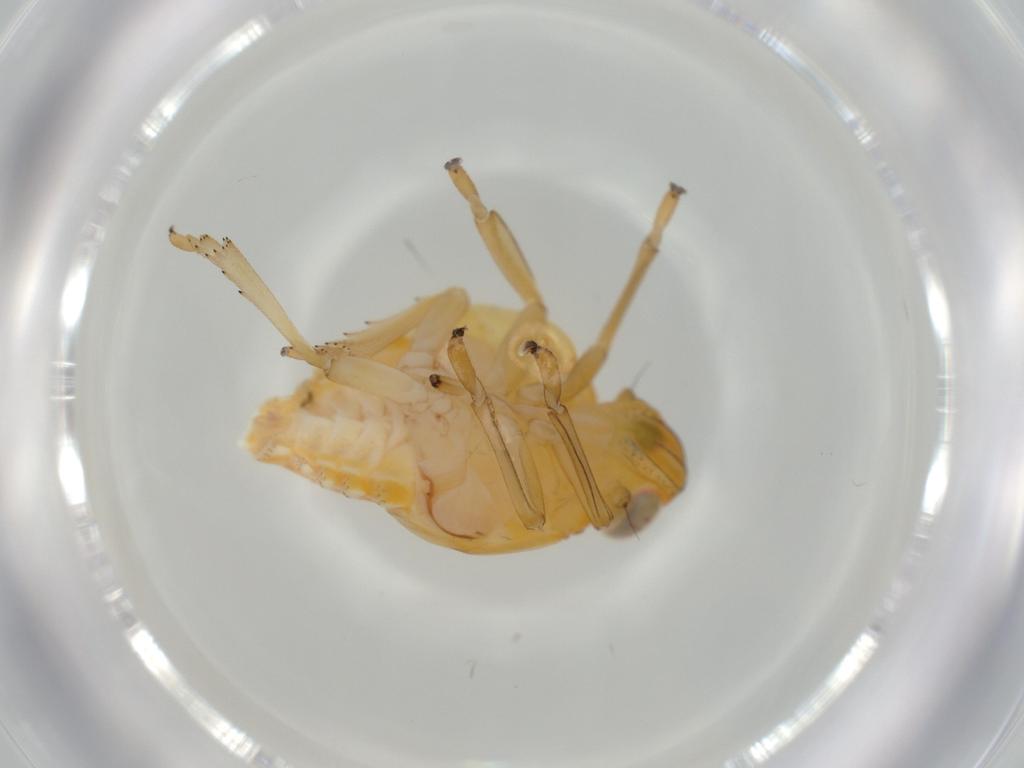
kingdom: Animalia
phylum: Arthropoda
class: Insecta
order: Hemiptera
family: Issidae
